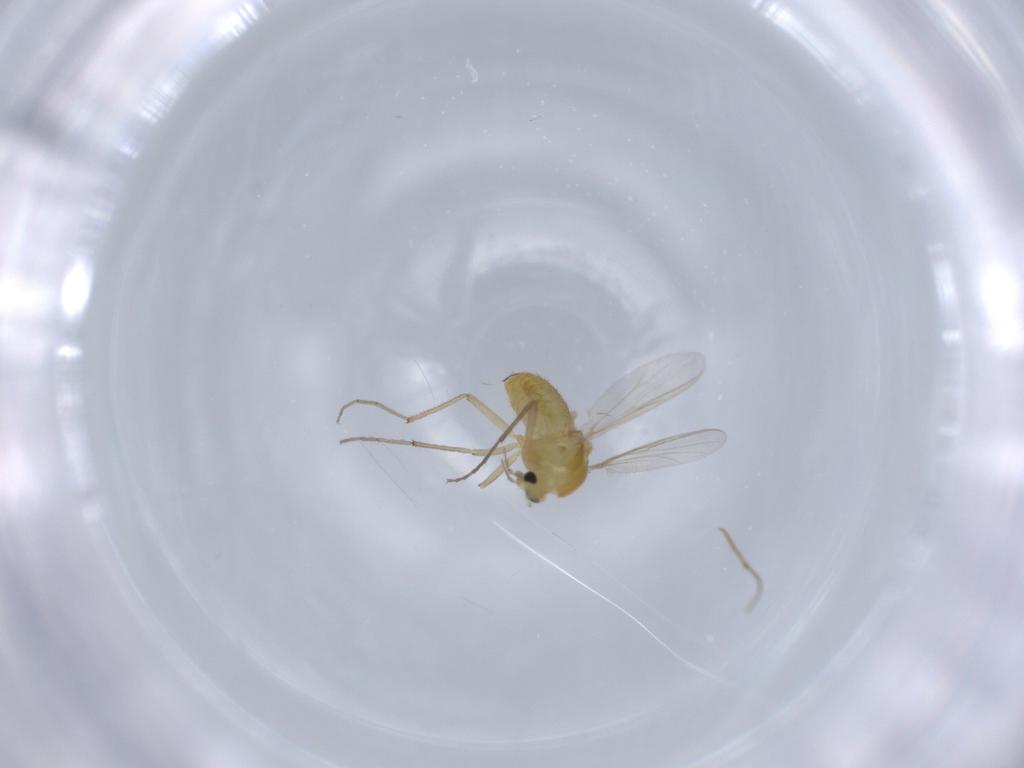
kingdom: Animalia
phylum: Arthropoda
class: Insecta
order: Diptera
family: Chironomidae
